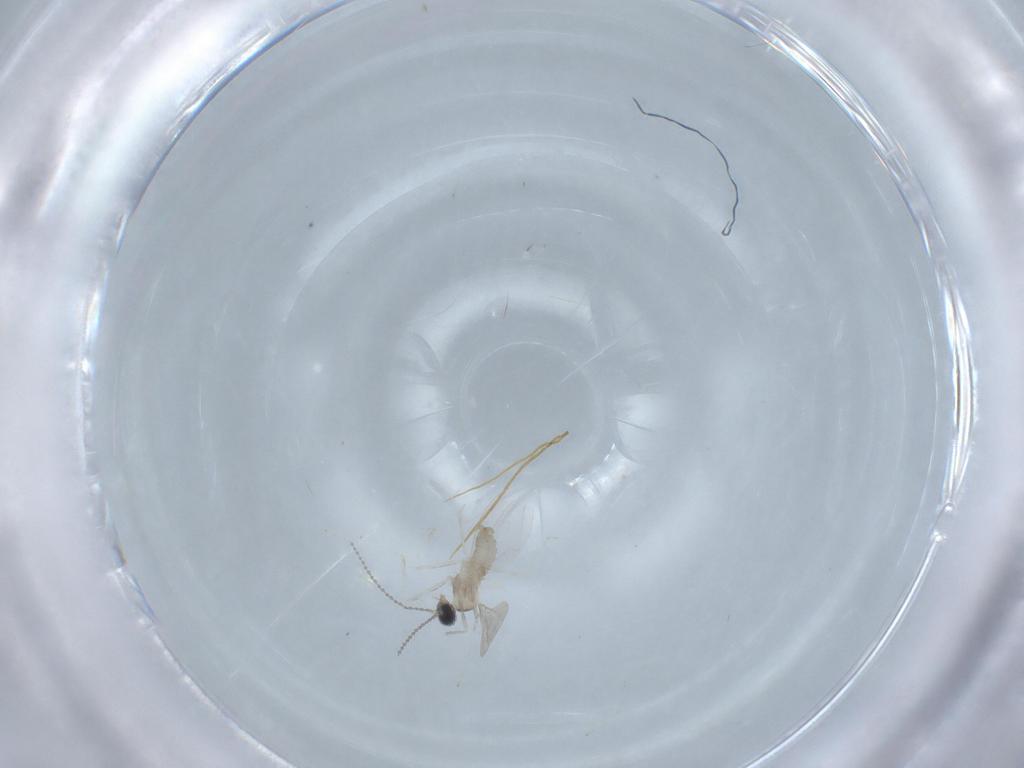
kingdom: Animalia
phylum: Arthropoda
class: Insecta
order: Diptera
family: Cecidomyiidae
